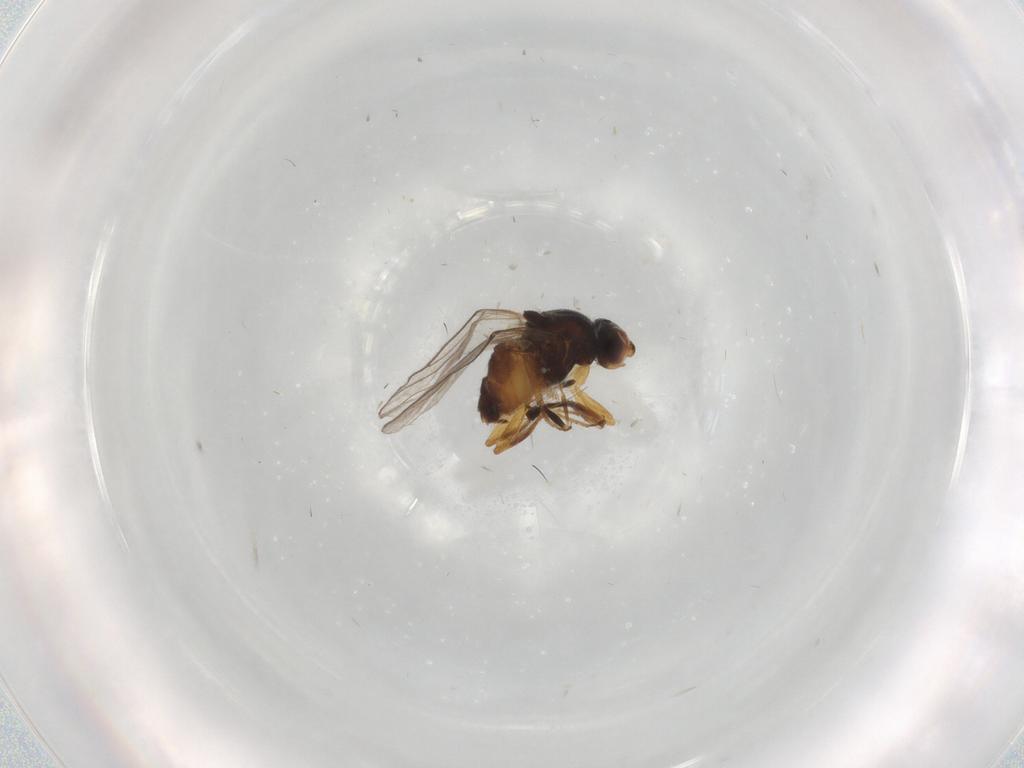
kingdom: Animalia
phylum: Arthropoda
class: Insecta
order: Diptera
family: Chloropidae
